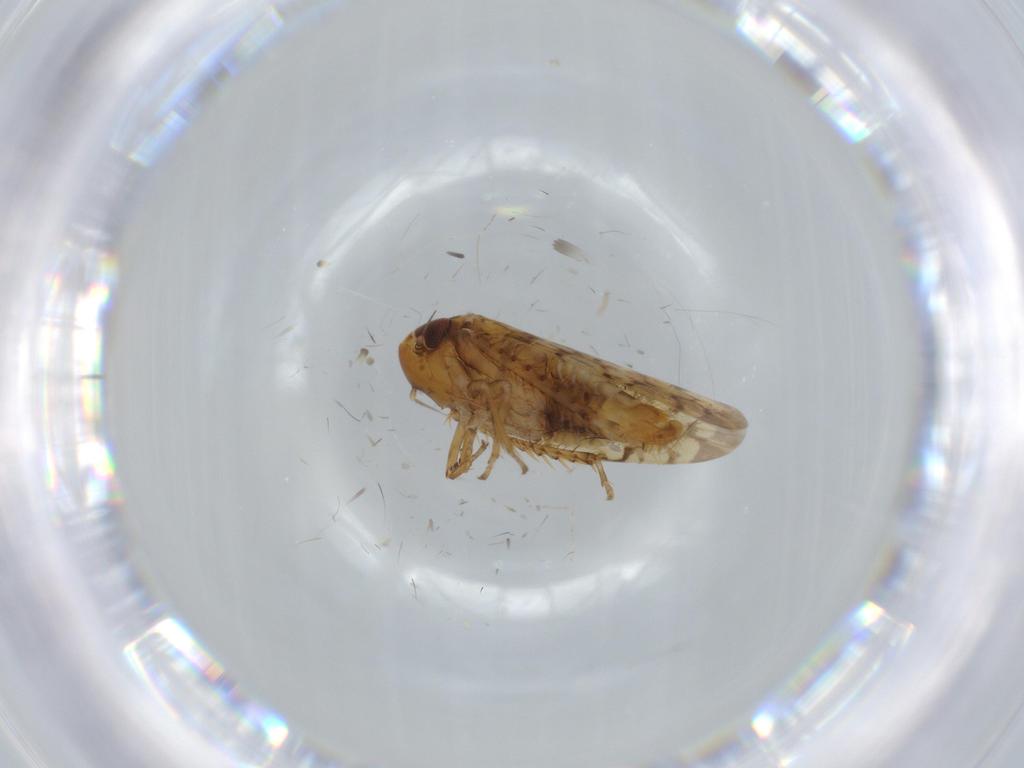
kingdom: Animalia
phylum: Arthropoda
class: Insecta
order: Hemiptera
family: Cicadellidae
